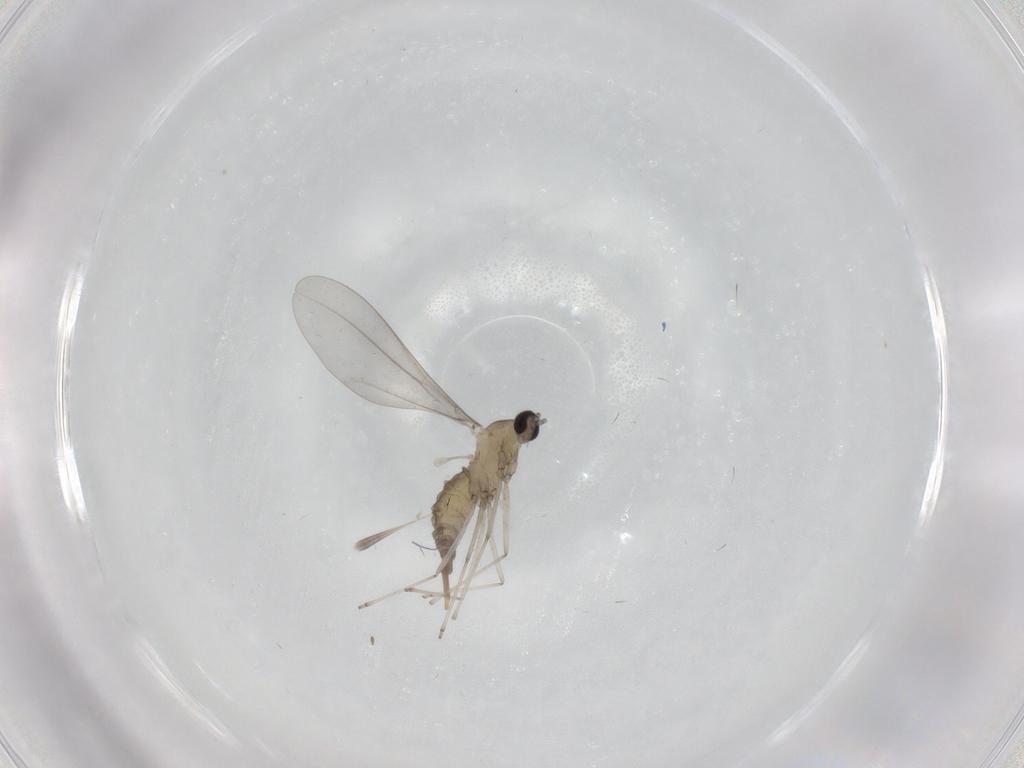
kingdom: Animalia
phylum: Arthropoda
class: Insecta
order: Diptera
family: Cecidomyiidae
